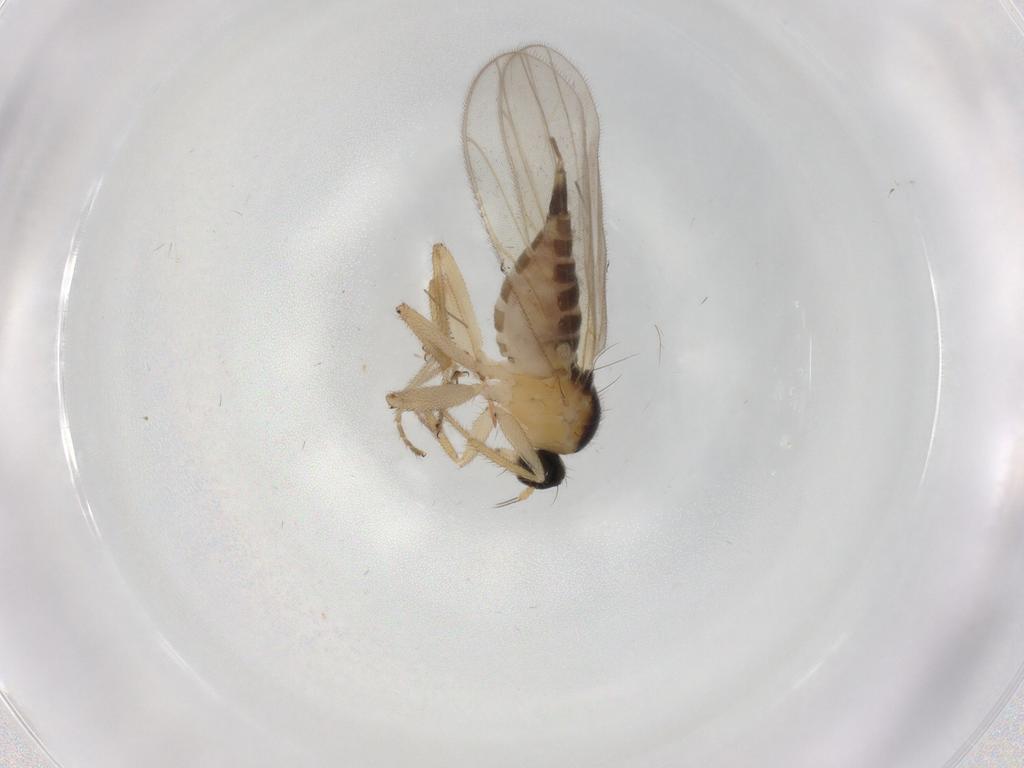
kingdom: Animalia
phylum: Arthropoda
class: Insecta
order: Diptera
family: Hybotidae
